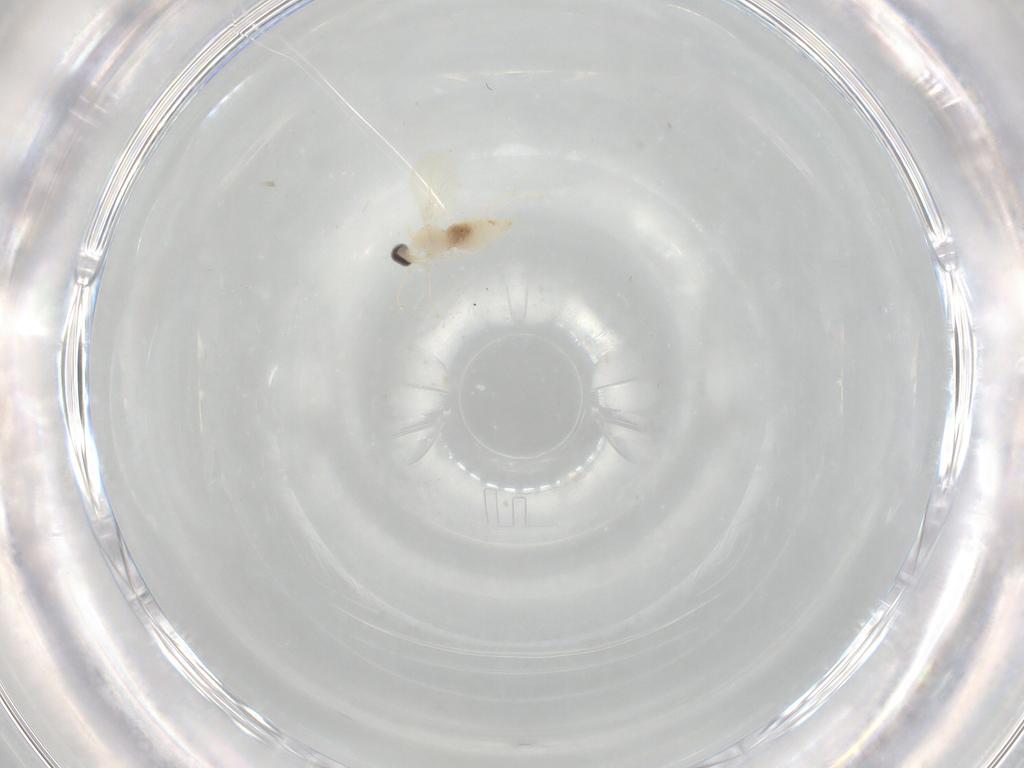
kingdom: Animalia
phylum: Arthropoda
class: Insecta
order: Diptera
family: Cecidomyiidae
